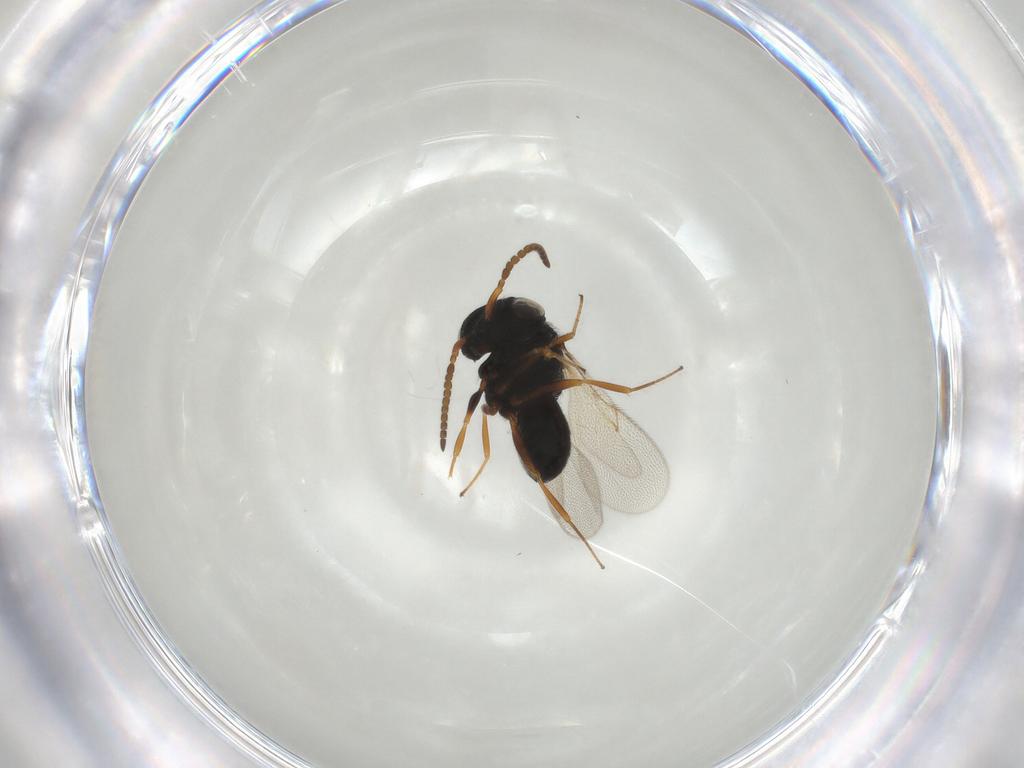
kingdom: Animalia
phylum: Arthropoda
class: Insecta
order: Hymenoptera
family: Scelionidae
